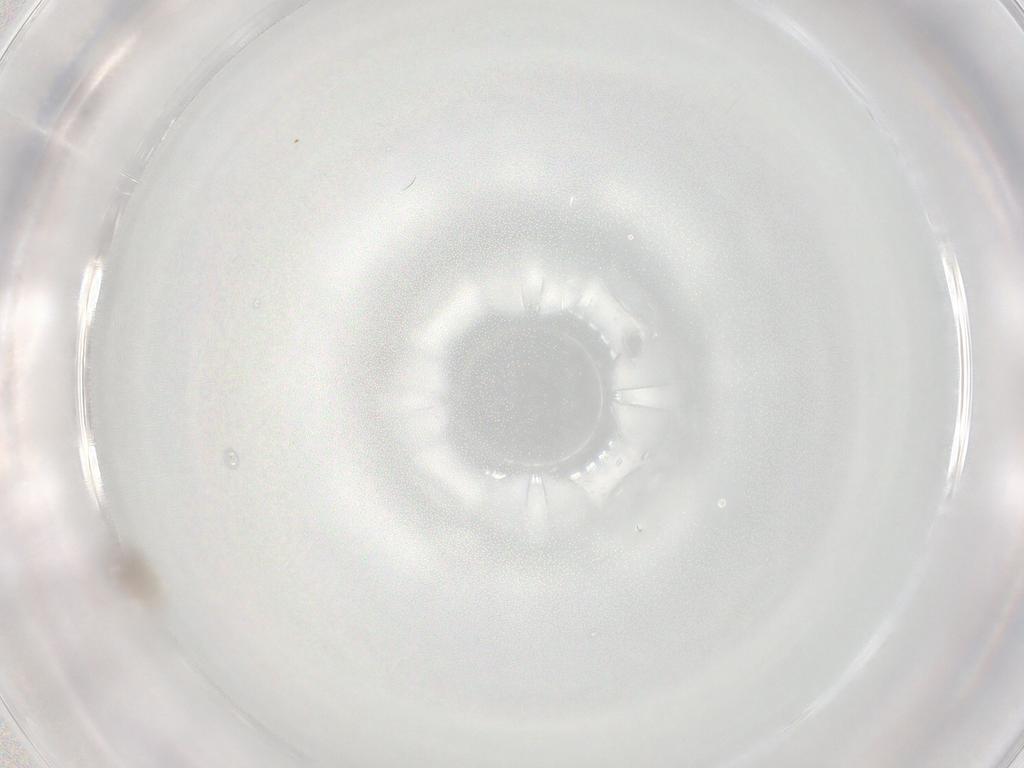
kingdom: Animalia
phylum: Arthropoda
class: Insecta
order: Diptera
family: Cecidomyiidae
